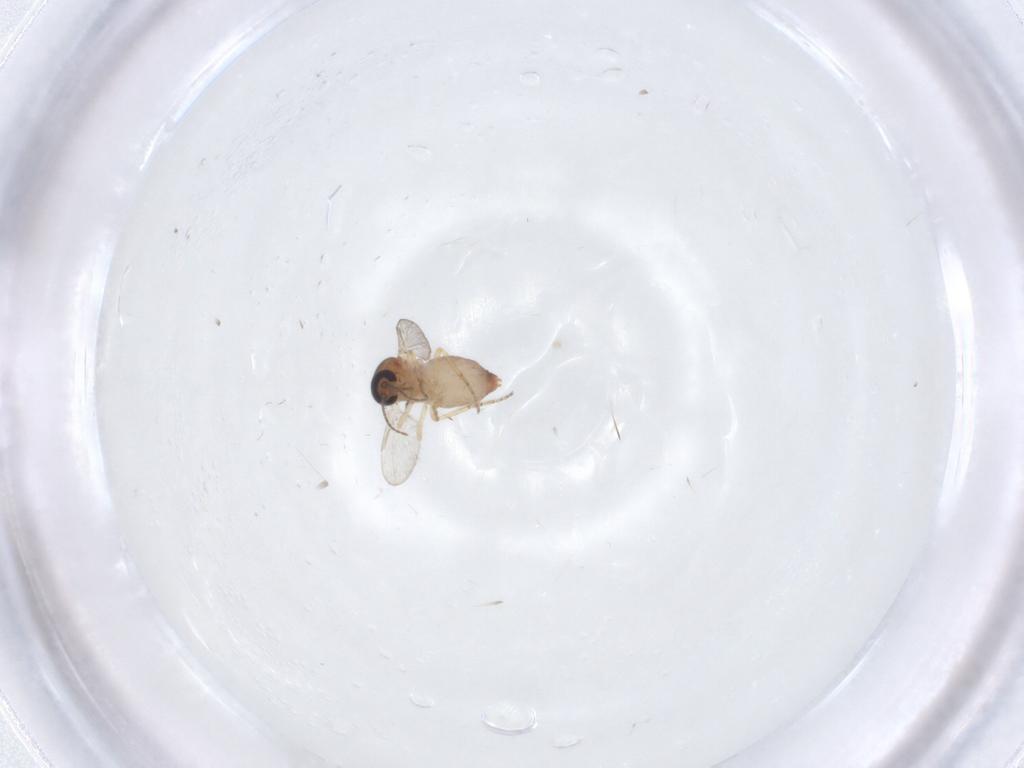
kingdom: Animalia
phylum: Arthropoda
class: Insecta
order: Diptera
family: Ceratopogonidae
